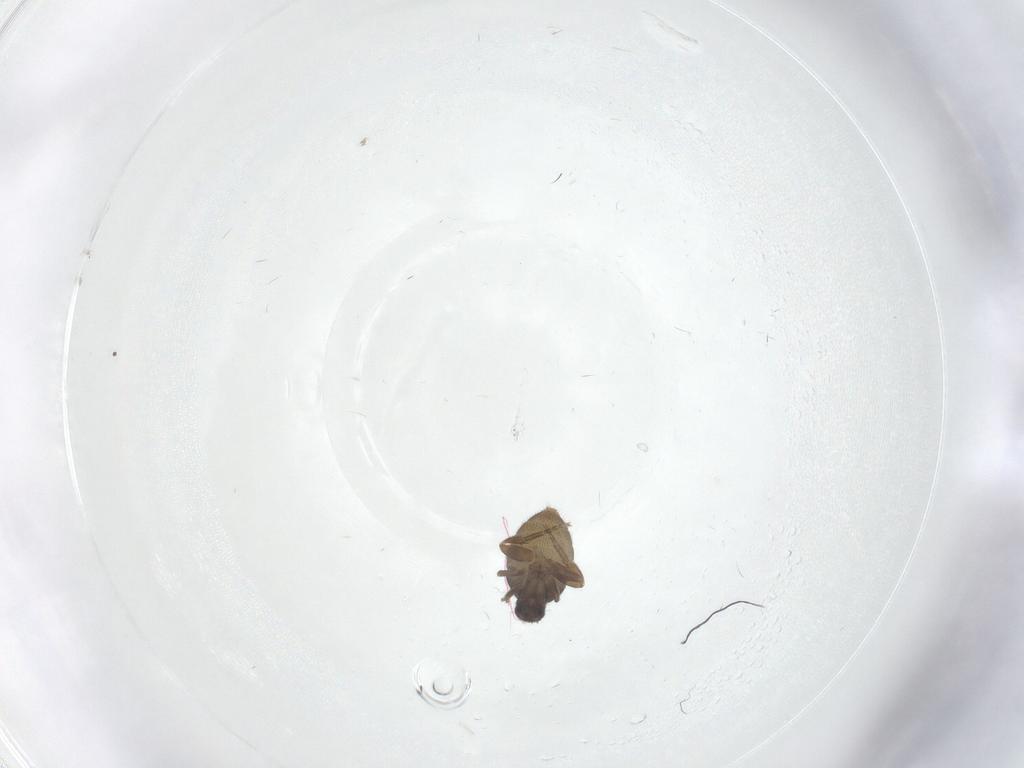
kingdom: Animalia
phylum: Arthropoda
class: Insecta
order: Diptera
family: Phoridae
